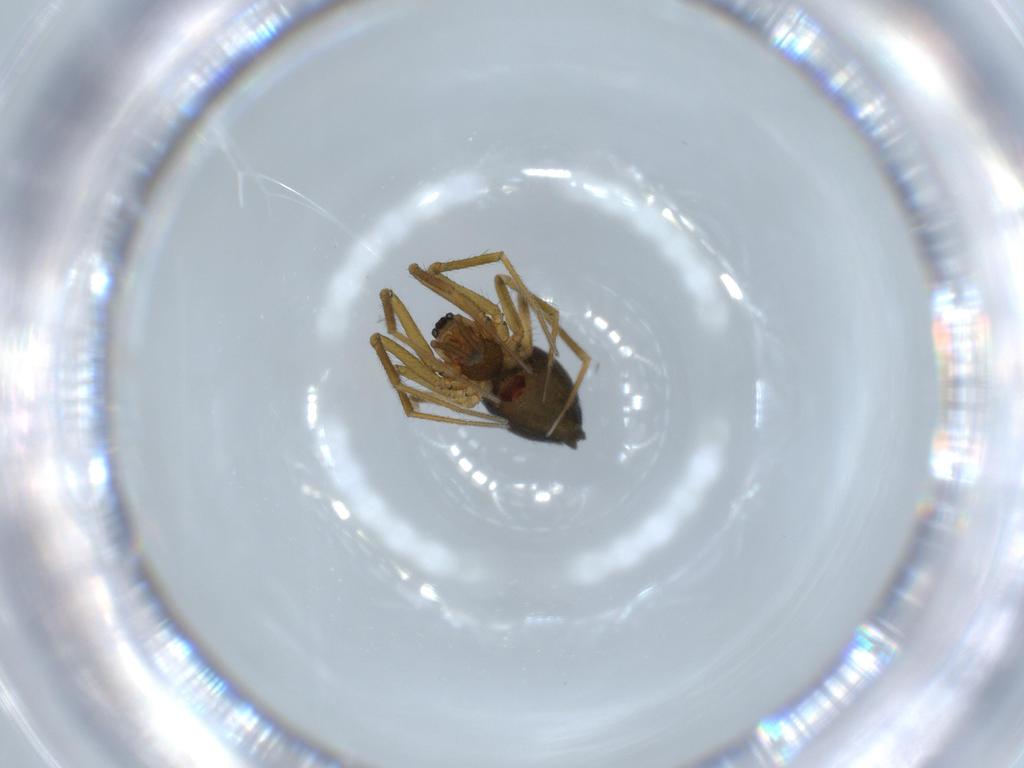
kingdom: Animalia
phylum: Arthropoda
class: Arachnida
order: Araneae
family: Linyphiidae
